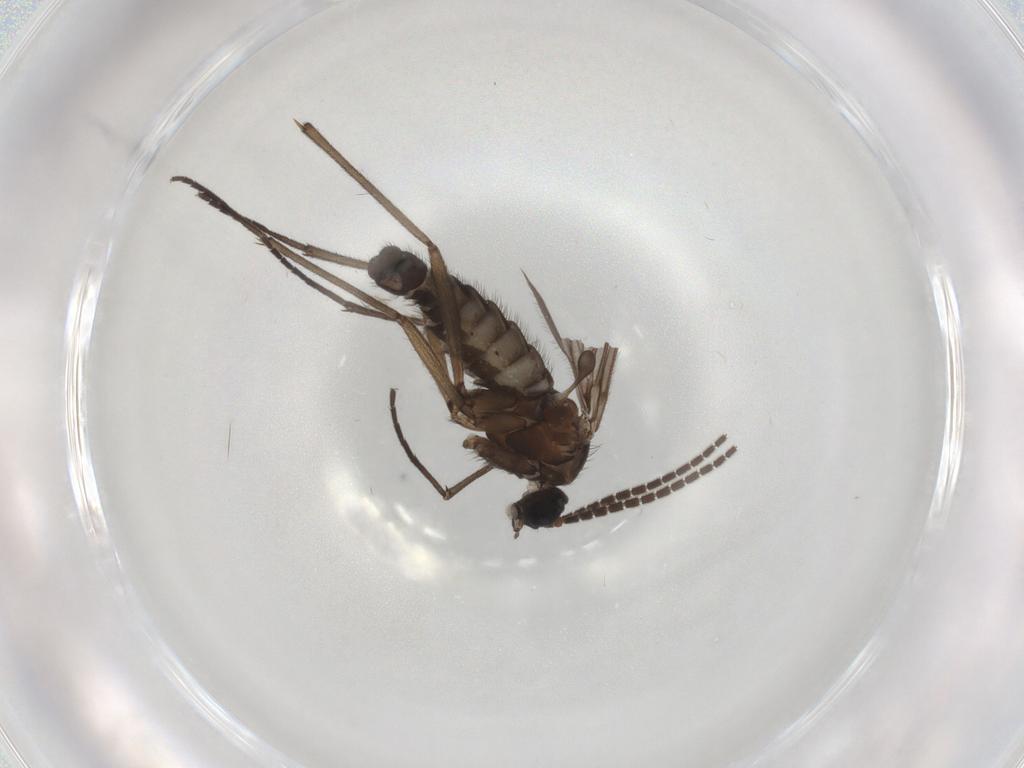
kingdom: Animalia
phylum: Arthropoda
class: Insecta
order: Diptera
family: Sciaridae
